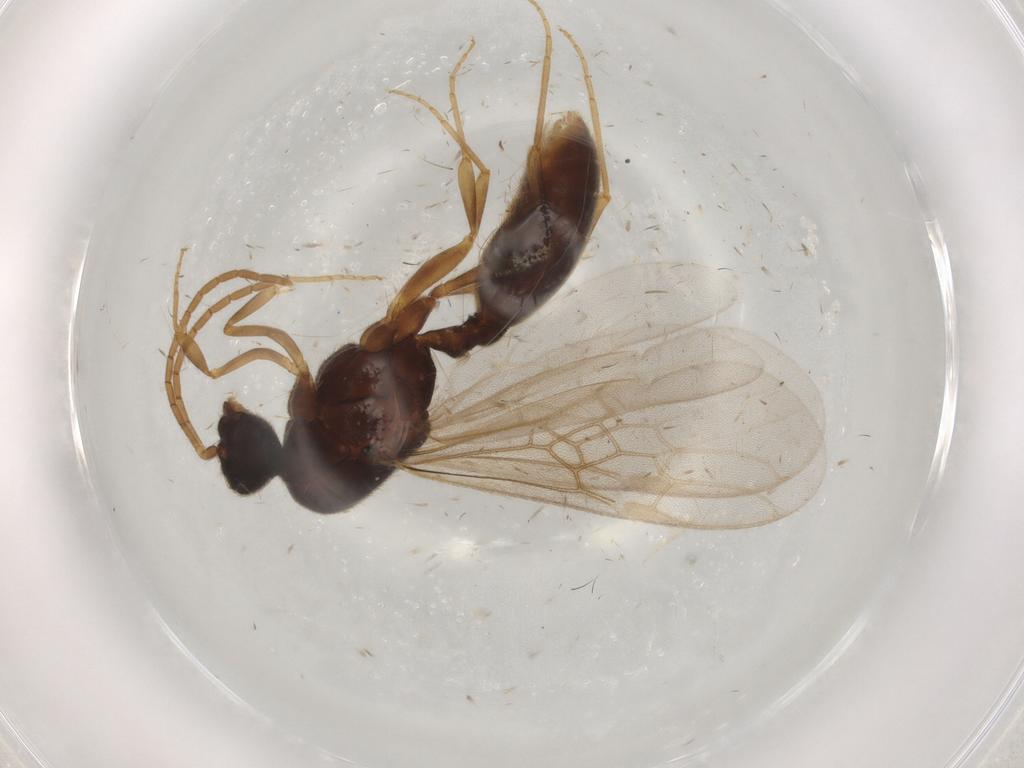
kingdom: Animalia
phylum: Arthropoda
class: Insecta
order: Hymenoptera
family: Formicidae
